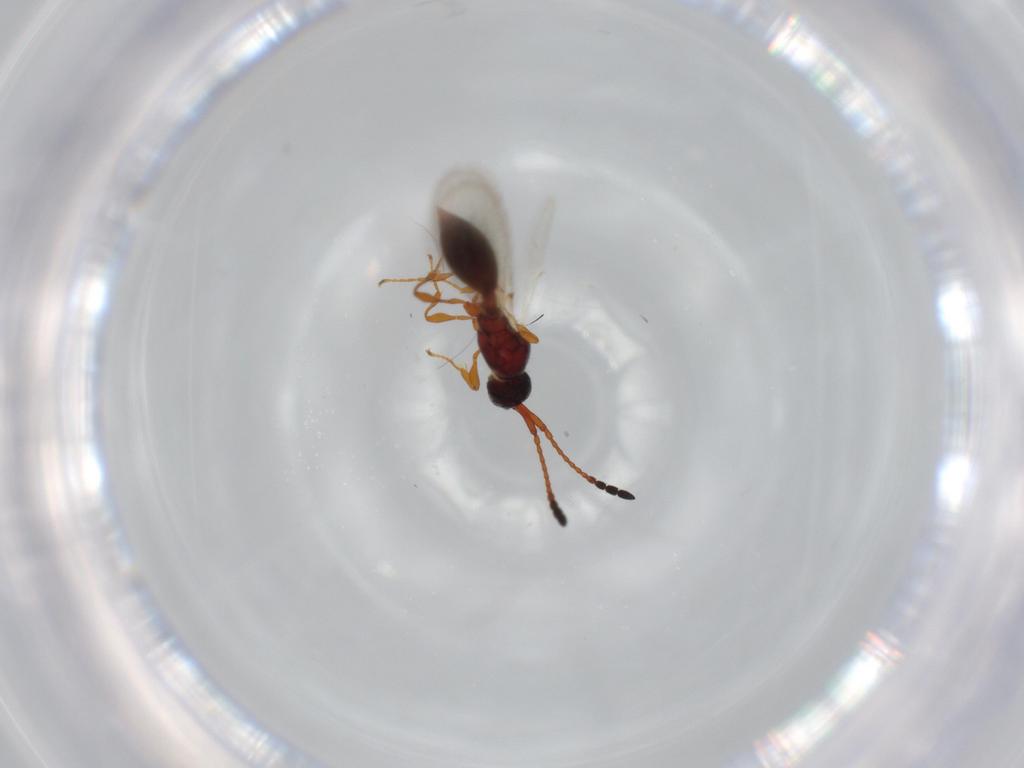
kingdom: Animalia
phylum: Arthropoda
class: Insecta
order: Hymenoptera
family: Diapriidae
